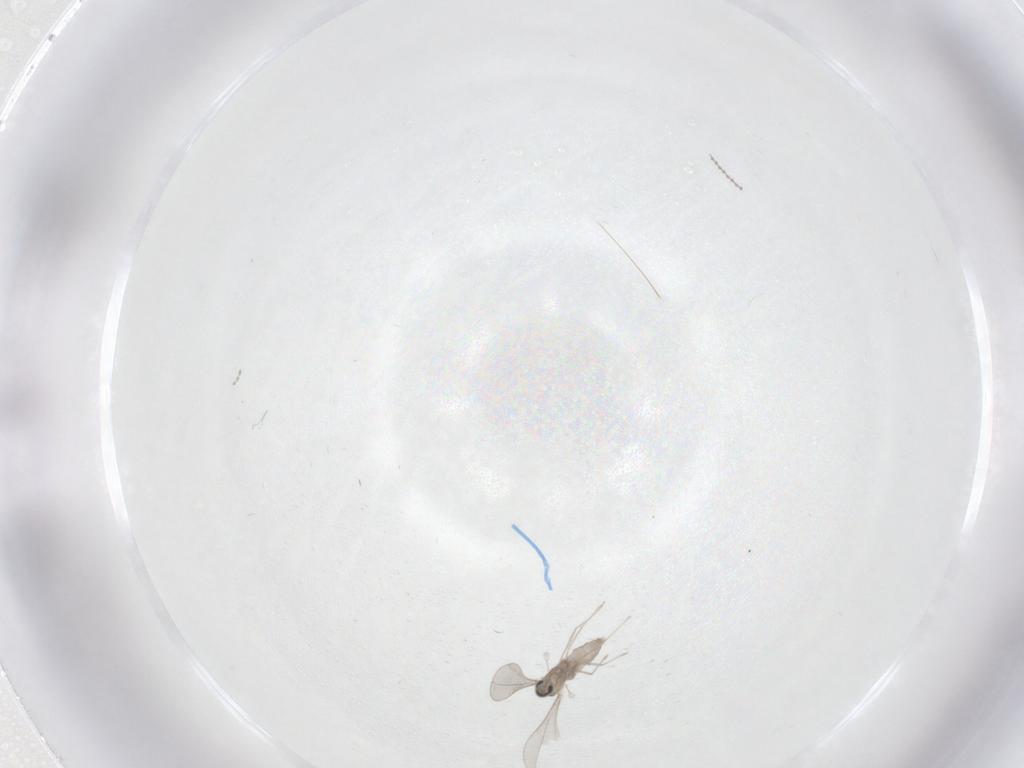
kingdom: Animalia
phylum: Arthropoda
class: Insecta
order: Diptera
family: Cecidomyiidae
